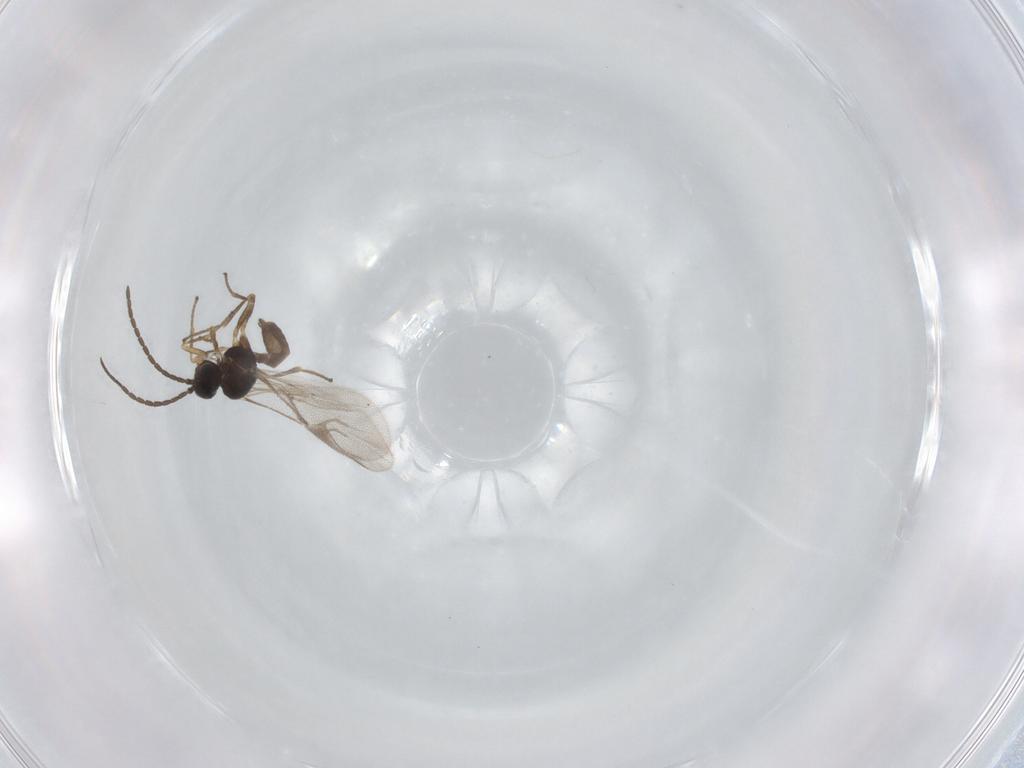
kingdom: Animalia
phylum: Arthropoda
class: Insecta
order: Hymenoptera
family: Braconidae
